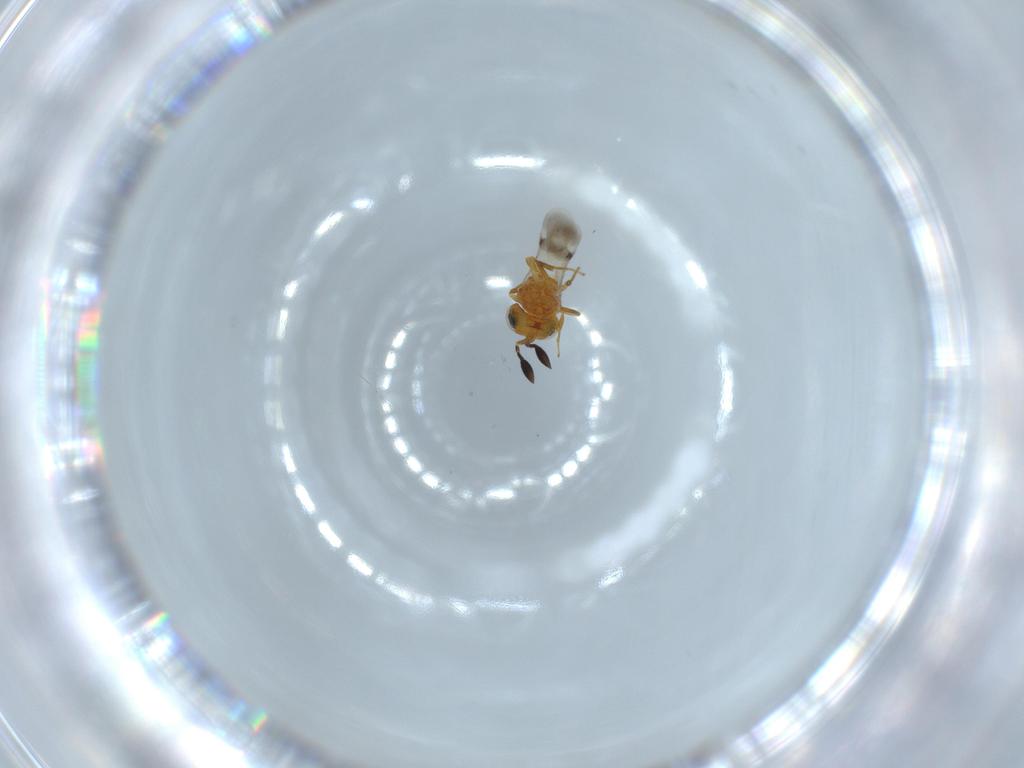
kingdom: Animalia
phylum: Arthropoda
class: Insecta
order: Hymenoptera
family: Scelionidae
